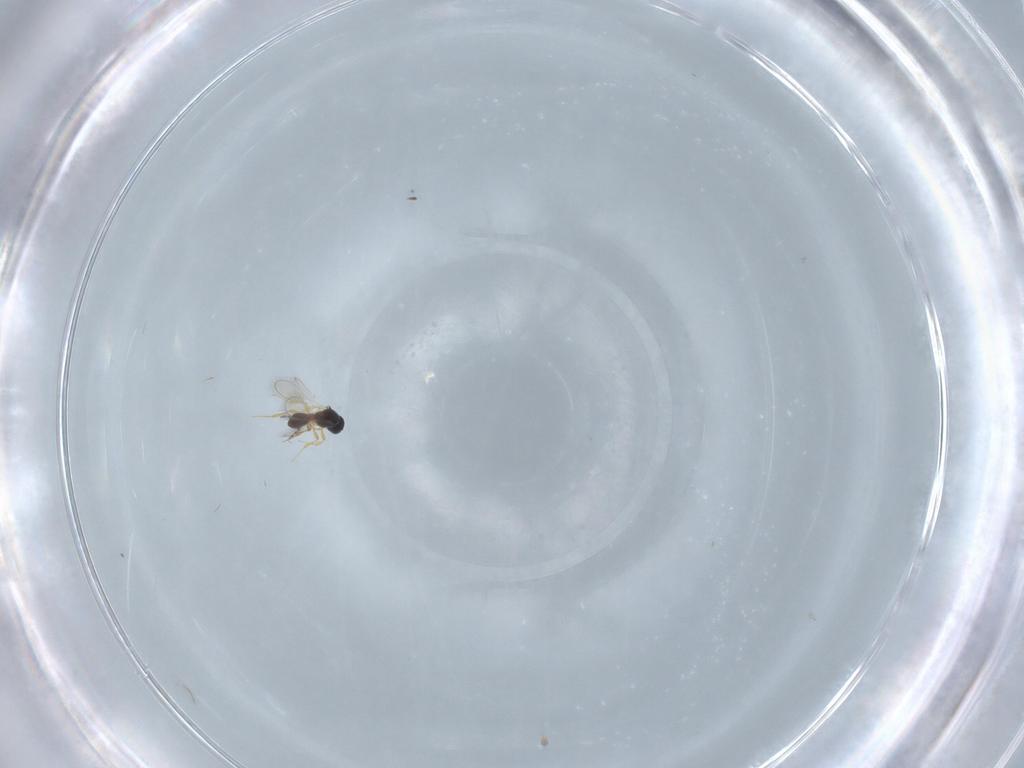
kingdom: Animalia
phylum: Arthropoda
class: Insecta
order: Hymenoptera
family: Platygastridae
